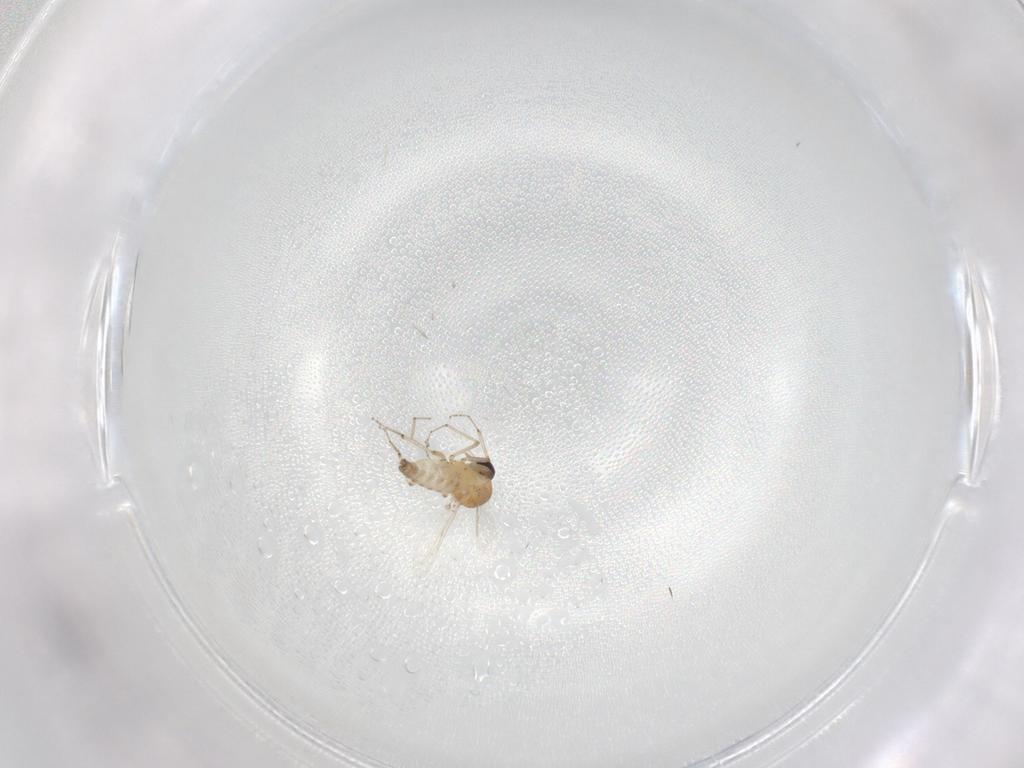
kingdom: Animalia
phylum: Arthropoda
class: Insecta
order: Diptera
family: Ceratopogonidae
